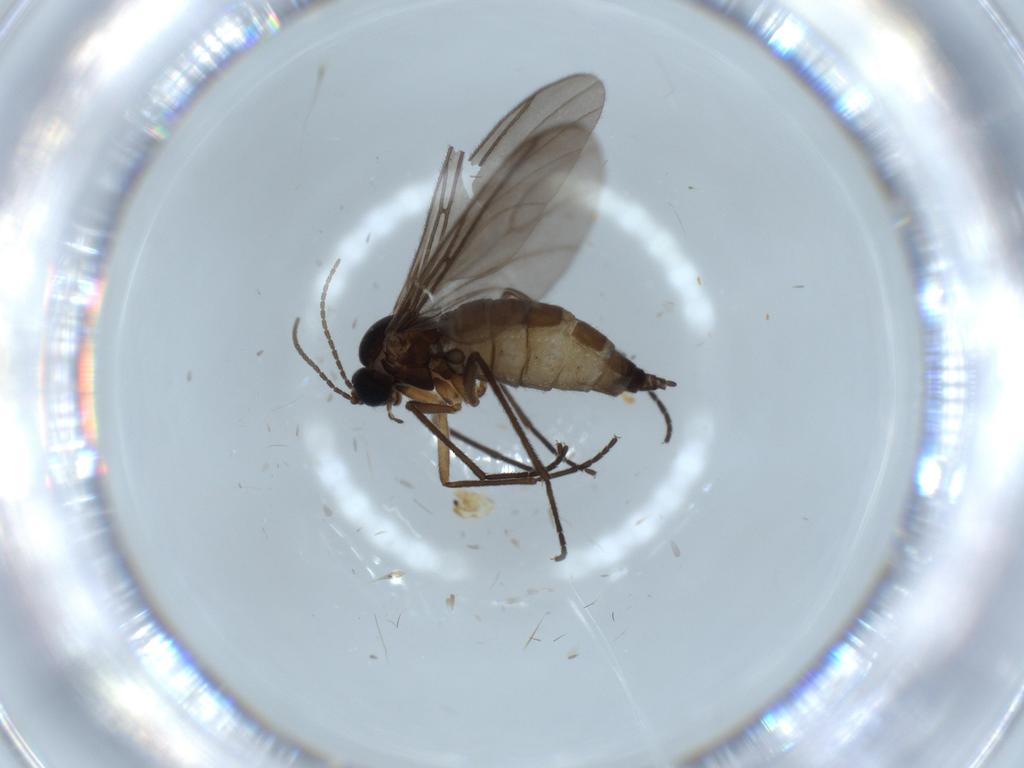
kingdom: Animalia
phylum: Arthropoda
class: Insecta
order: Diptera
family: Sciaridae
